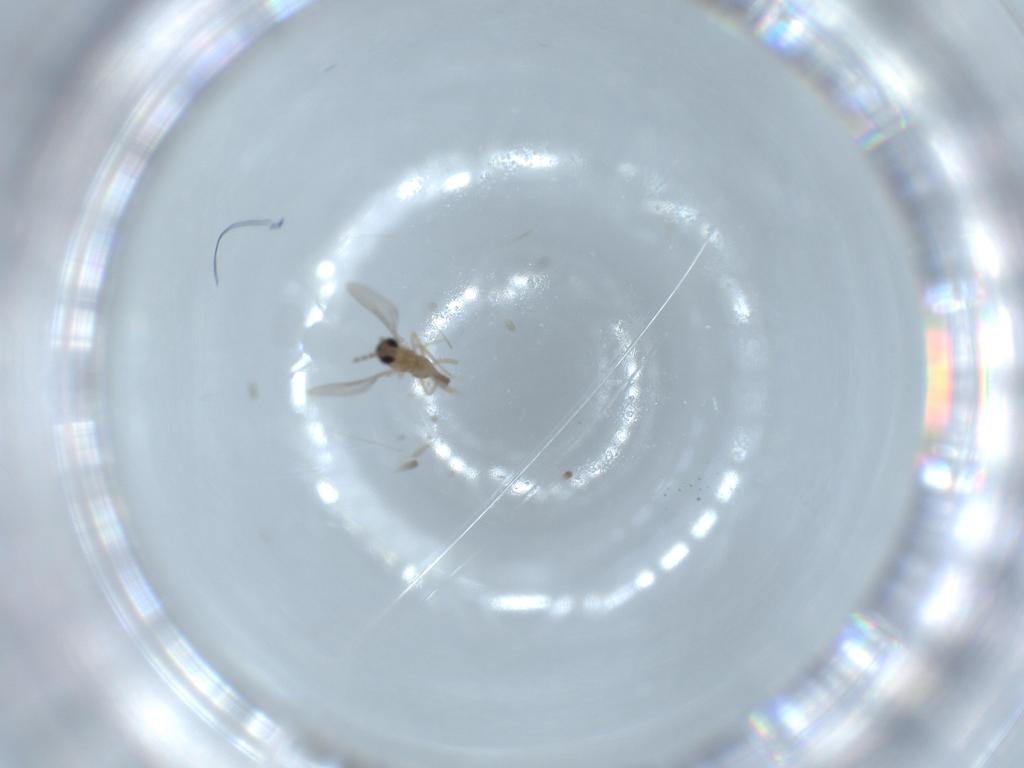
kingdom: Animalia
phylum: Arthropoda
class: Insecta
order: Diptera
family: Cecidomyiidae
